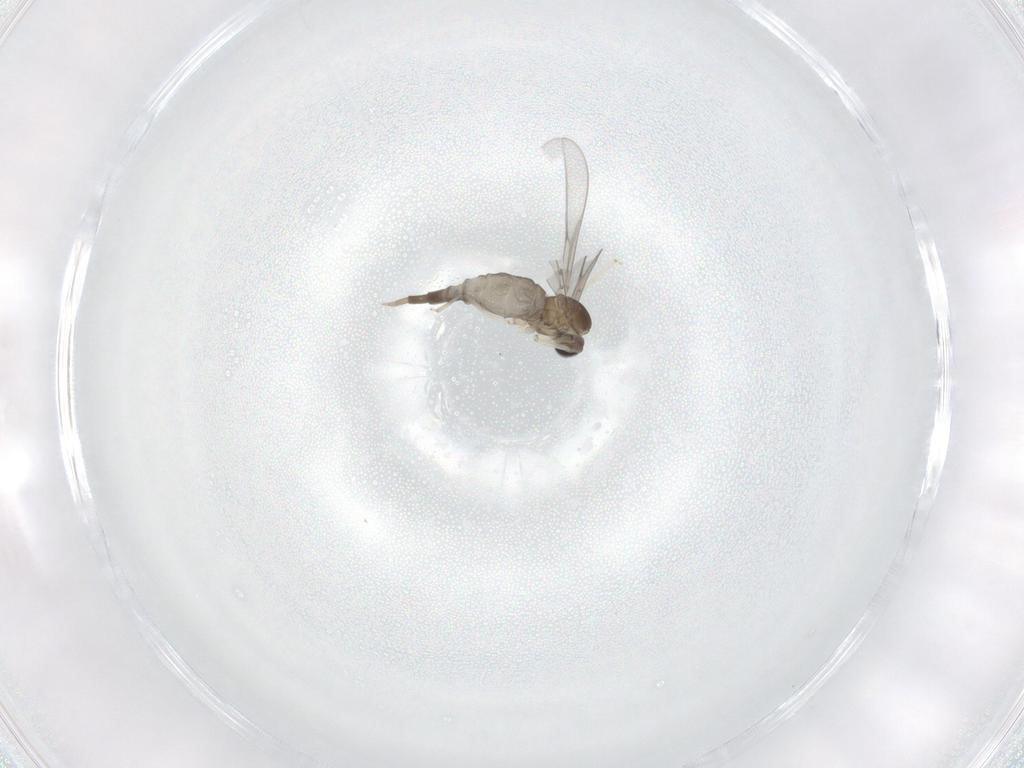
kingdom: Animalia
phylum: Arthropoda
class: Insecta
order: Diptera
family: Cecidomyiidae
